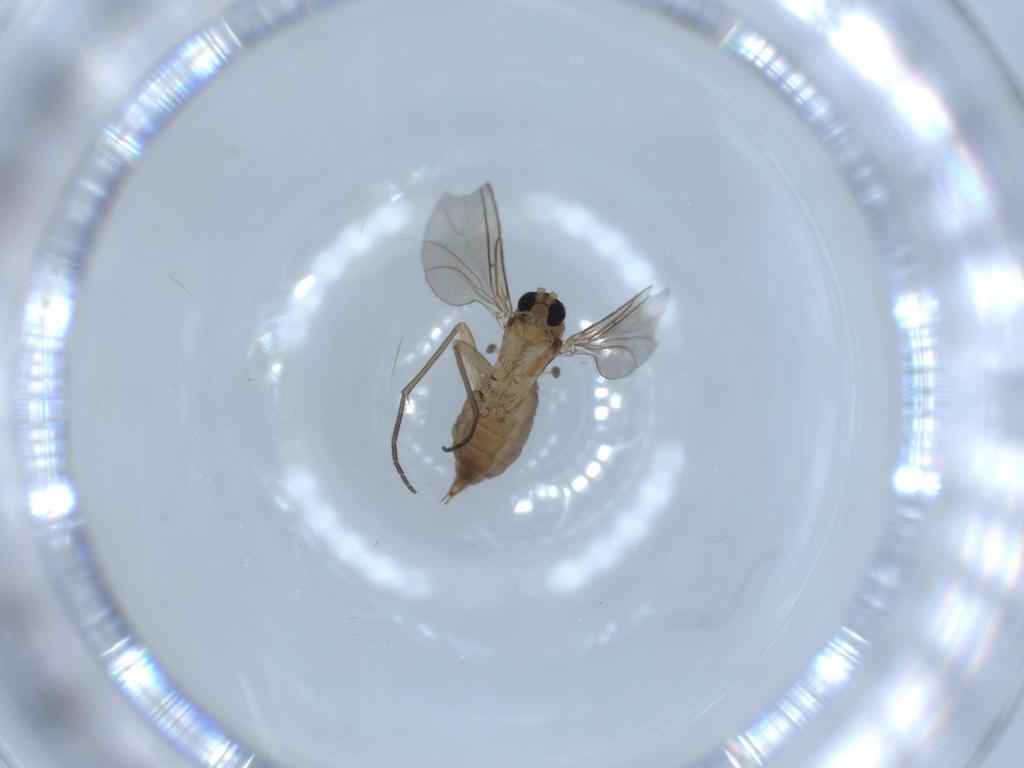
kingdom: Animalia
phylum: Arthropoda
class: Insecta
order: Diptera
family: Sciaridae
